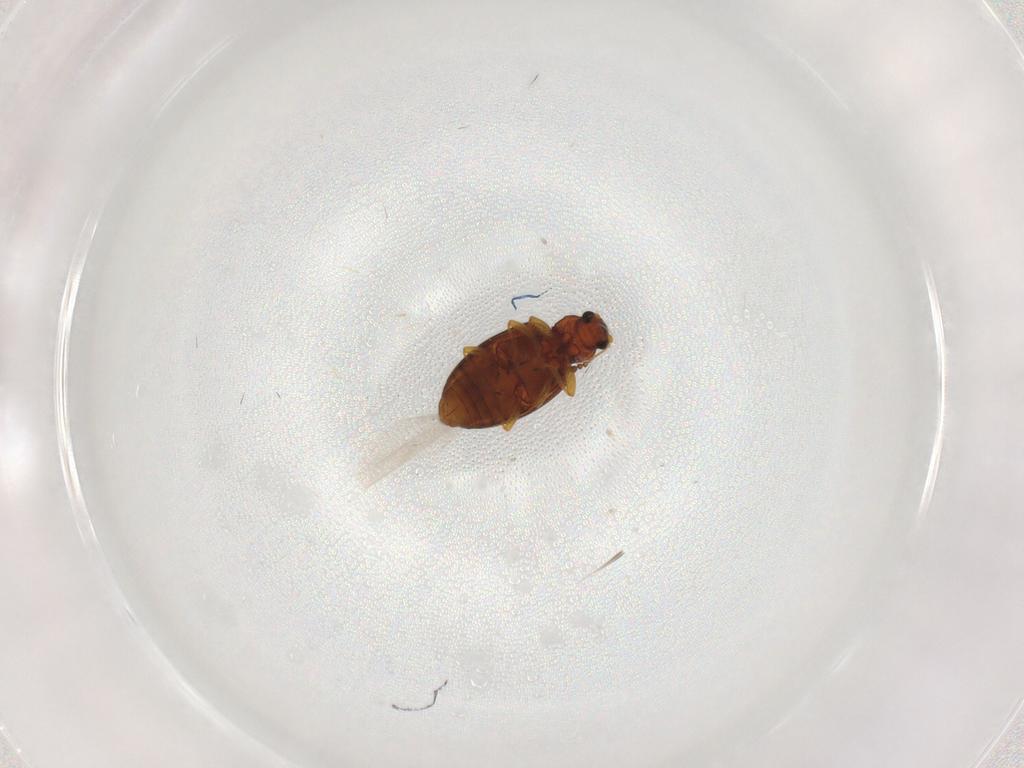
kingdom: Animalia
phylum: Arthropoda
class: Insecta
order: Coleoptera
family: Latridiidae
